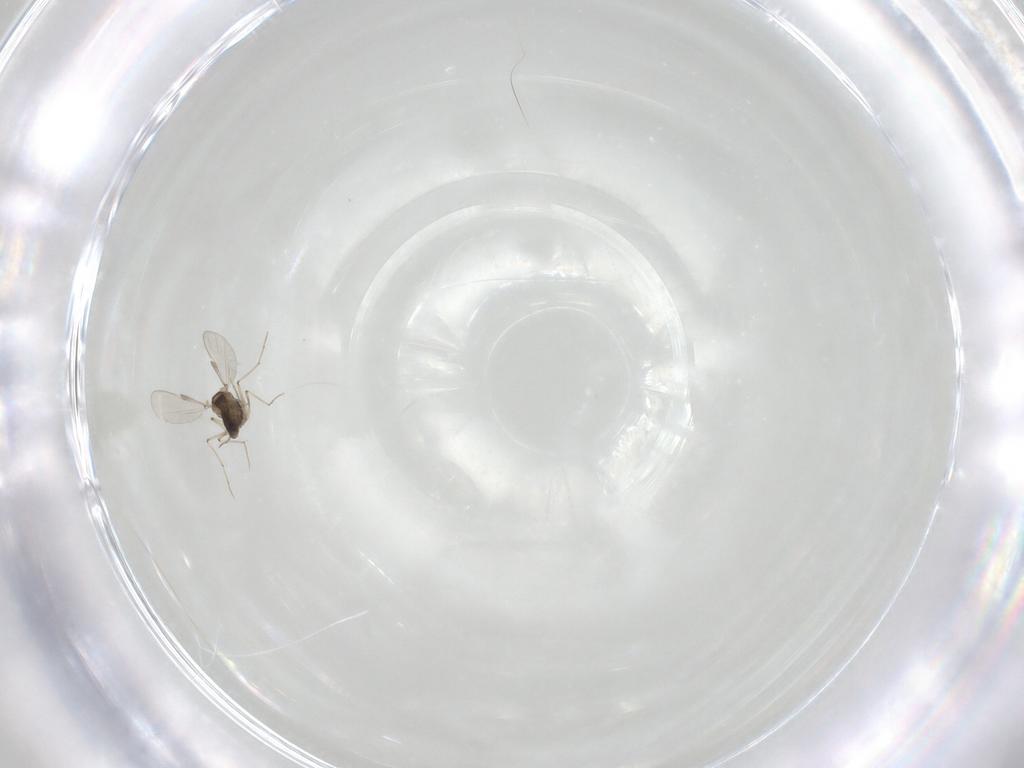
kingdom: Animalia
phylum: Arthropoda
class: Insecta
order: Diptera
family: Chironomidae
